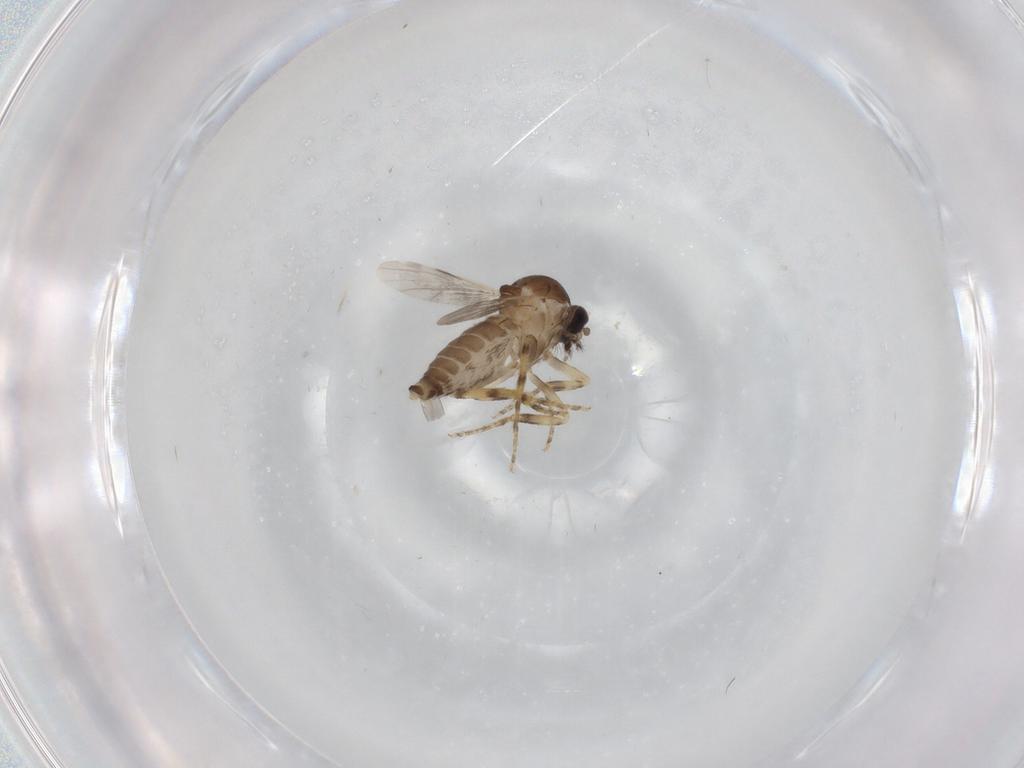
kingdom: Animalia
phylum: Arthropoda
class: Insecta
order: Diptera
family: Ceratopogonidae
